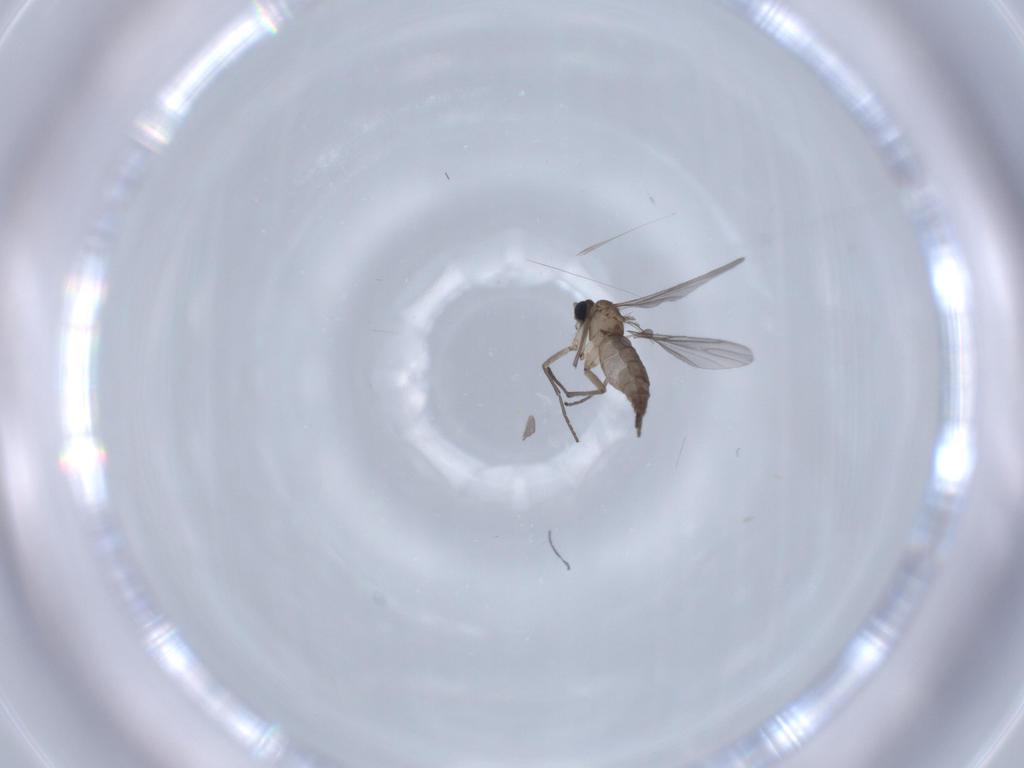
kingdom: Animalia
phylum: Arthropoda
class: Insecta
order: Diptera
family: Sciaridae
